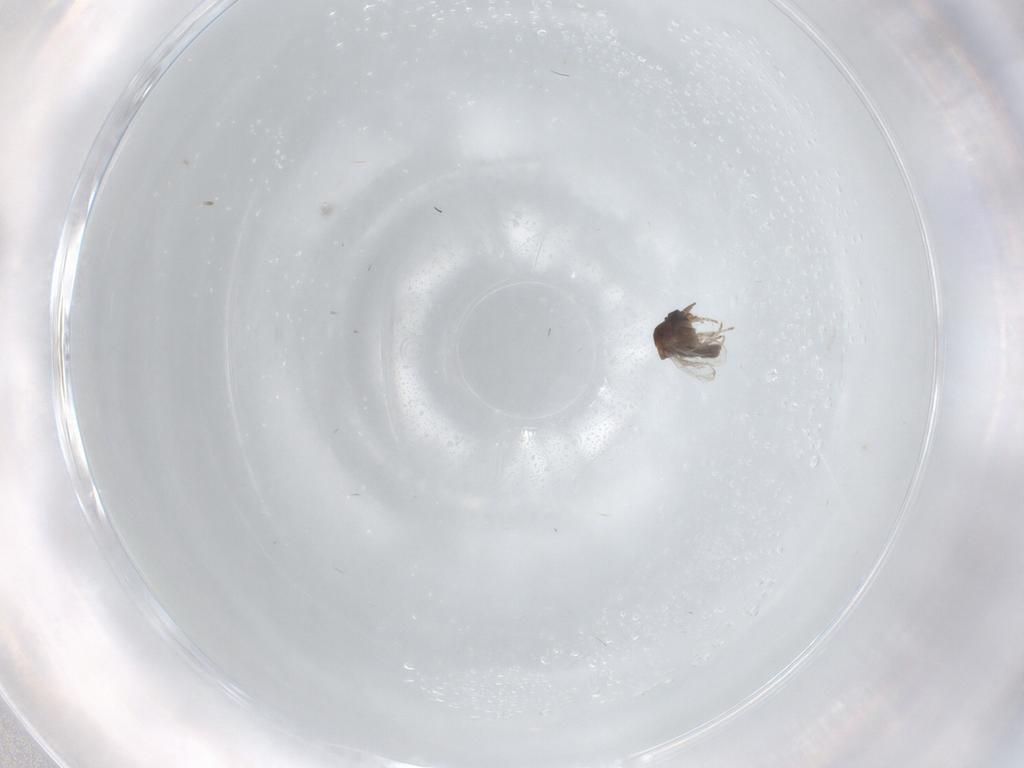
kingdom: Animalia
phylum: Arthropoda
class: Insecta
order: Diptera
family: Ceratopogonidae
